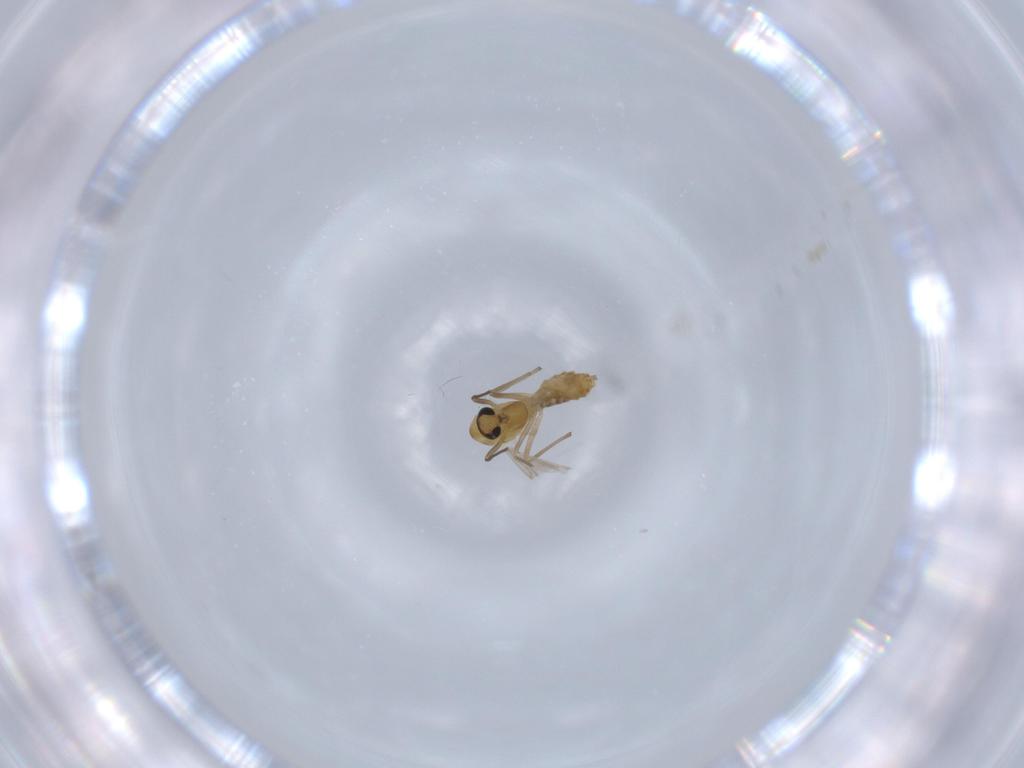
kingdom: Animalia
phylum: Arthropoda
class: Insecta
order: Diptera
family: Chironomidae
